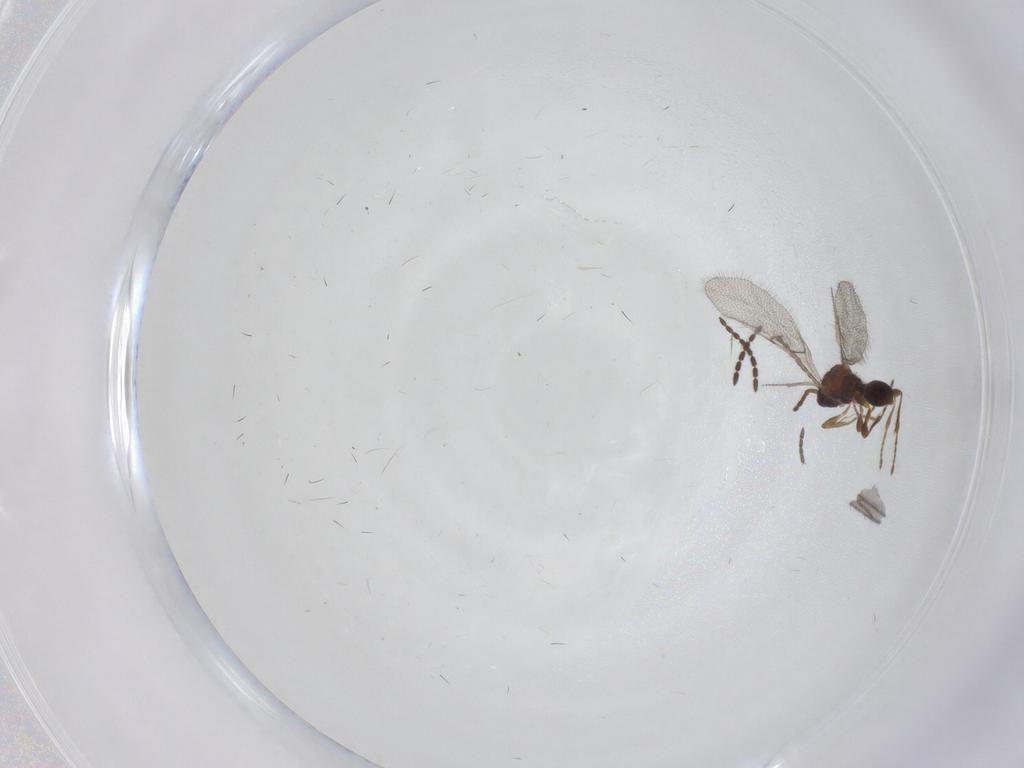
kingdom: Animalia
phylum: Arthropoda
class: Insecta
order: Hymenoptera
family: Diapriidae
